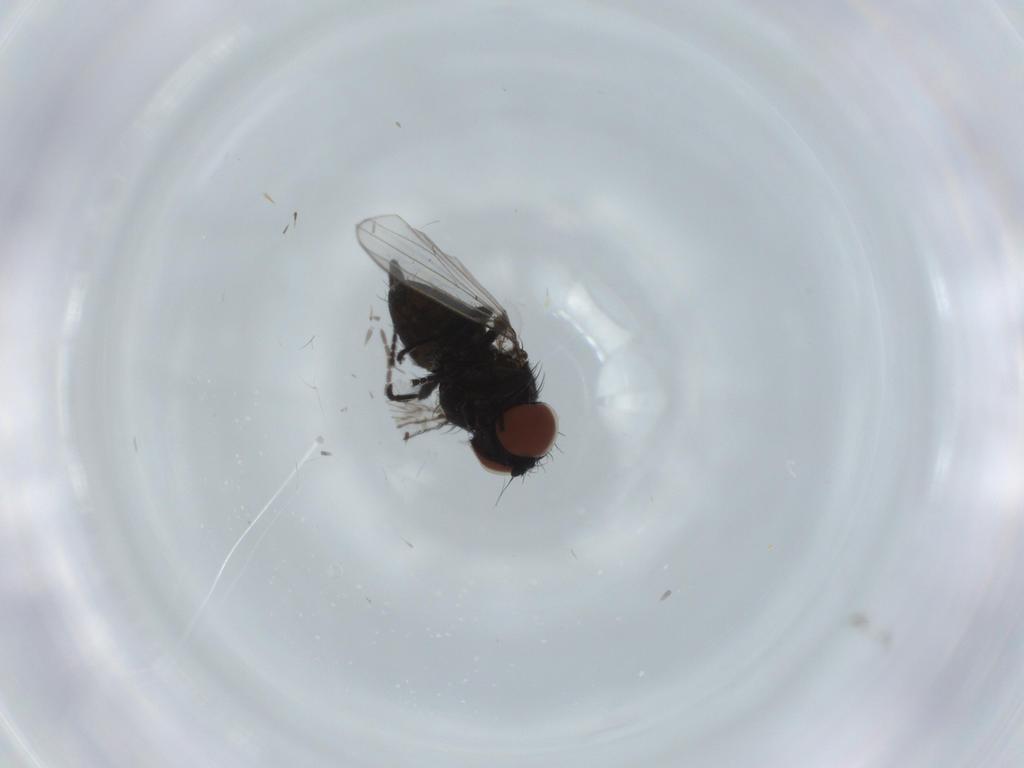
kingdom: Animalia
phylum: Arthropoda
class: Insecta
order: Diptera
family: Milichiidae
